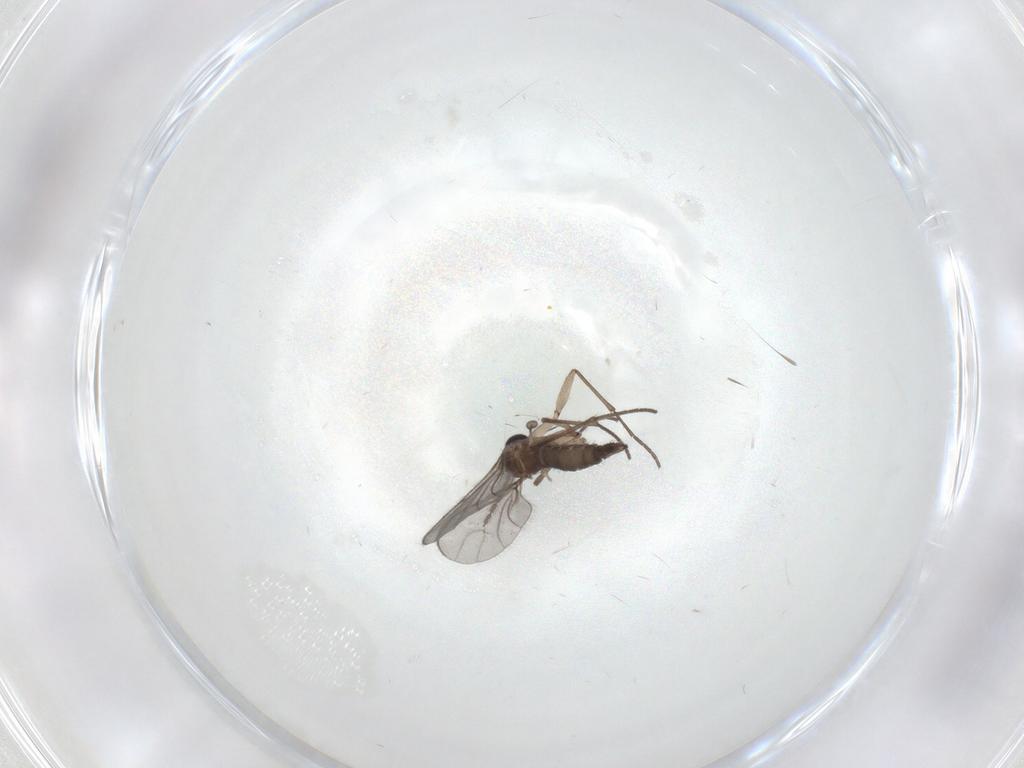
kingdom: Animalia
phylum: Arthropoda
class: Insecta
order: Diptera
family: Sciaridae
